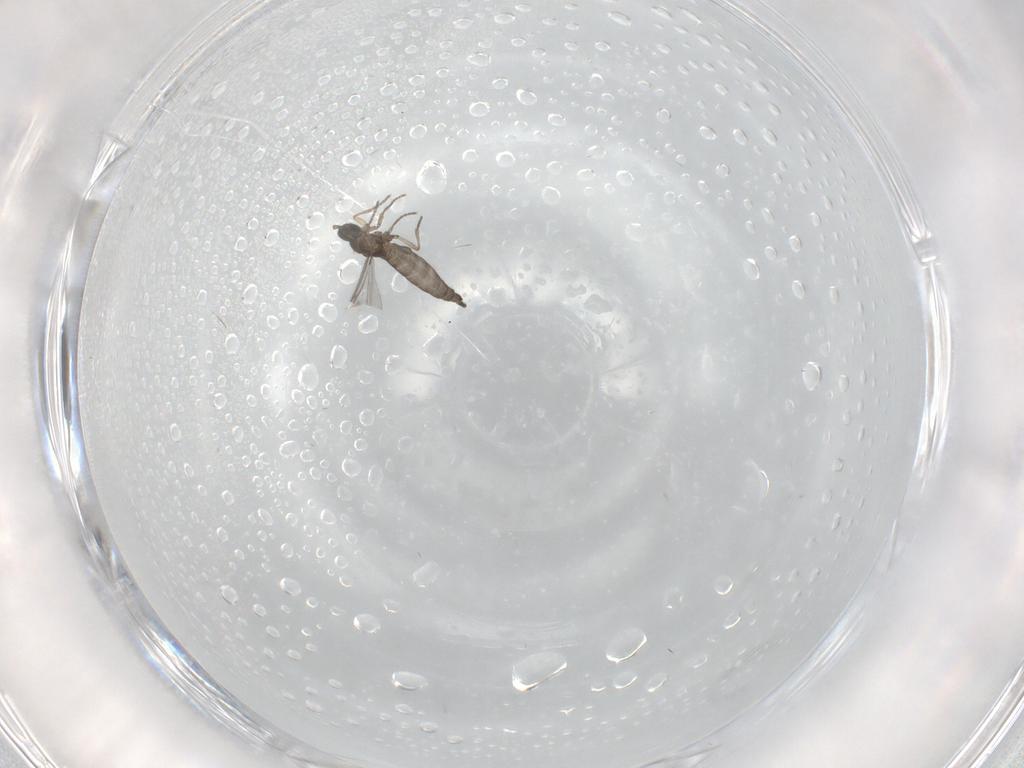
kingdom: Animalia
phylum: Arthropoda
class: Insecta
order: Diptera
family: Sciaridae
